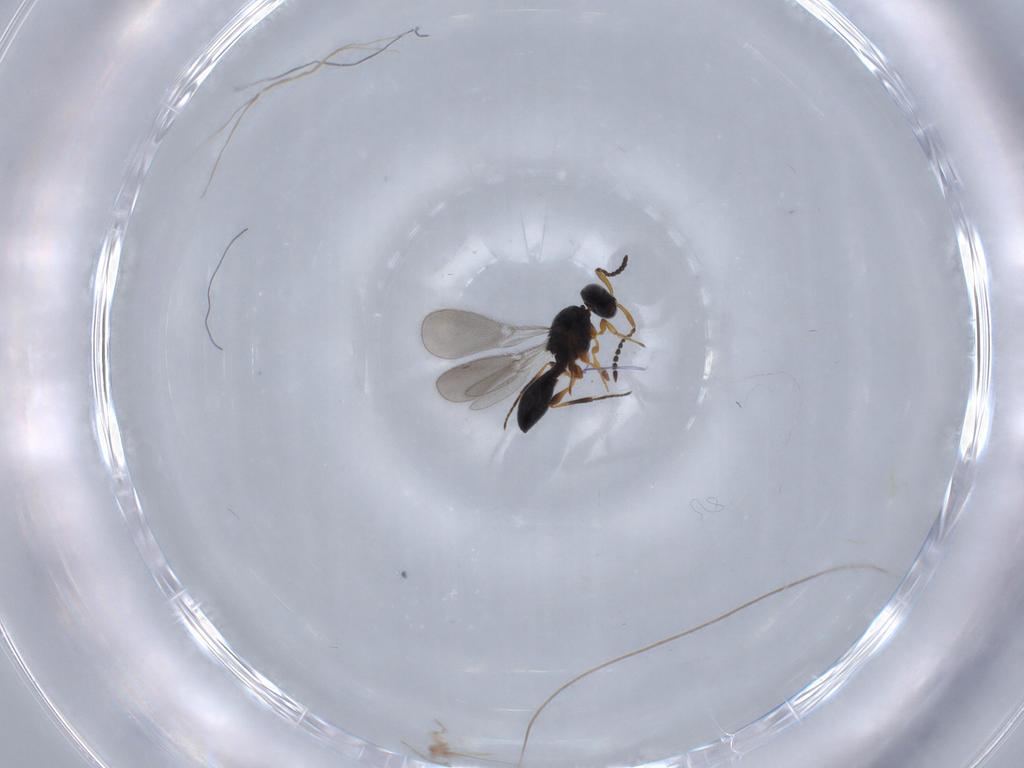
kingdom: Animalia
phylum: Arthropoda
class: Insecta
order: Hymenoptera
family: Platygastridae
